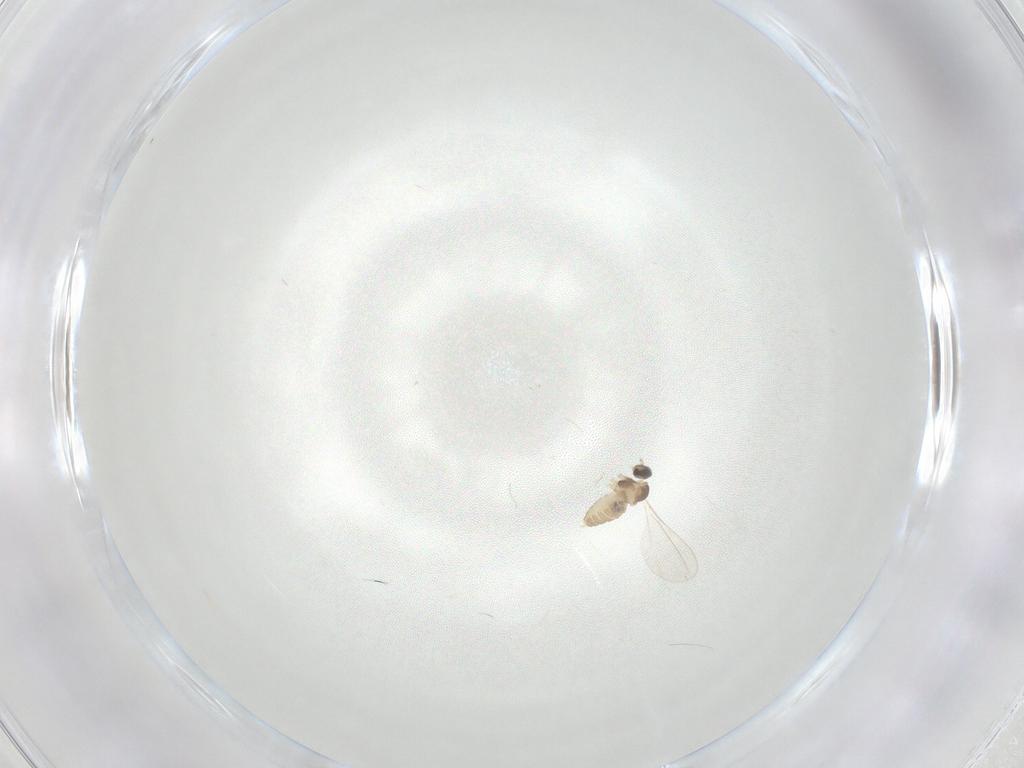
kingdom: Animalia
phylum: Arthropoda
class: Insecta
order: Diptera
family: Cecidomyiidae
